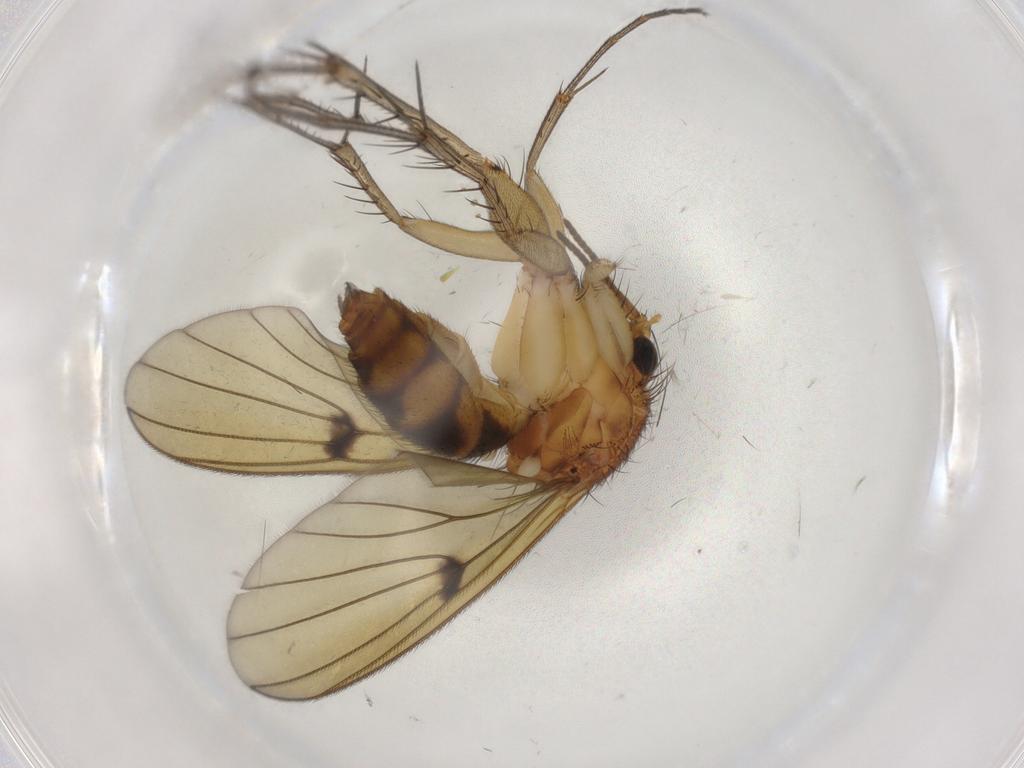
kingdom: Animalia
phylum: Arthropoda
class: Insecta
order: Diptera
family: Mycetophilidae
